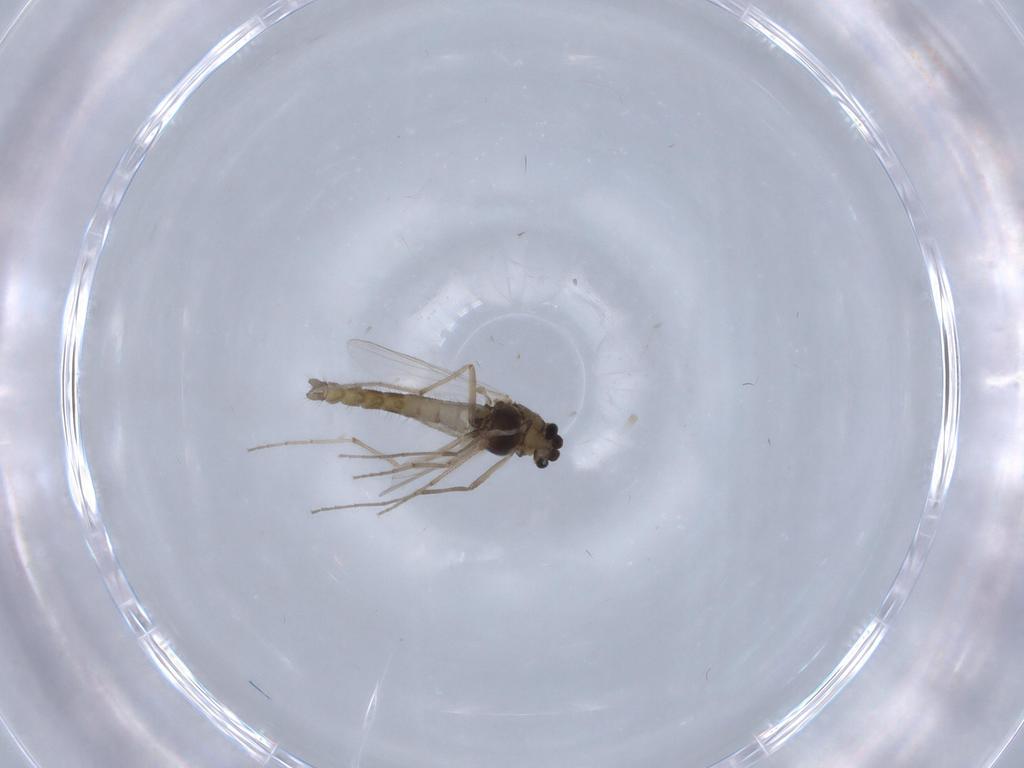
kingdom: Animalia
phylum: Arthropoda
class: Insecta
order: Diptera
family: Chironomidae
